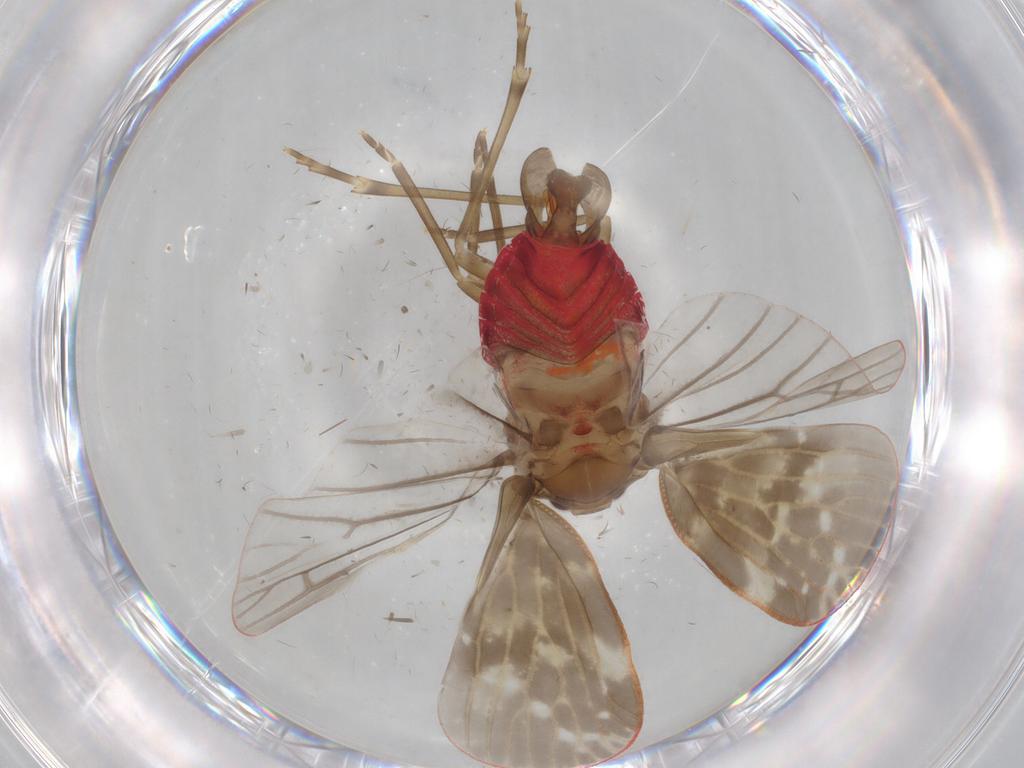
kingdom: Animalia
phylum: Arthropoda
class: Insecta
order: Hemiptera
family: Achilidae
